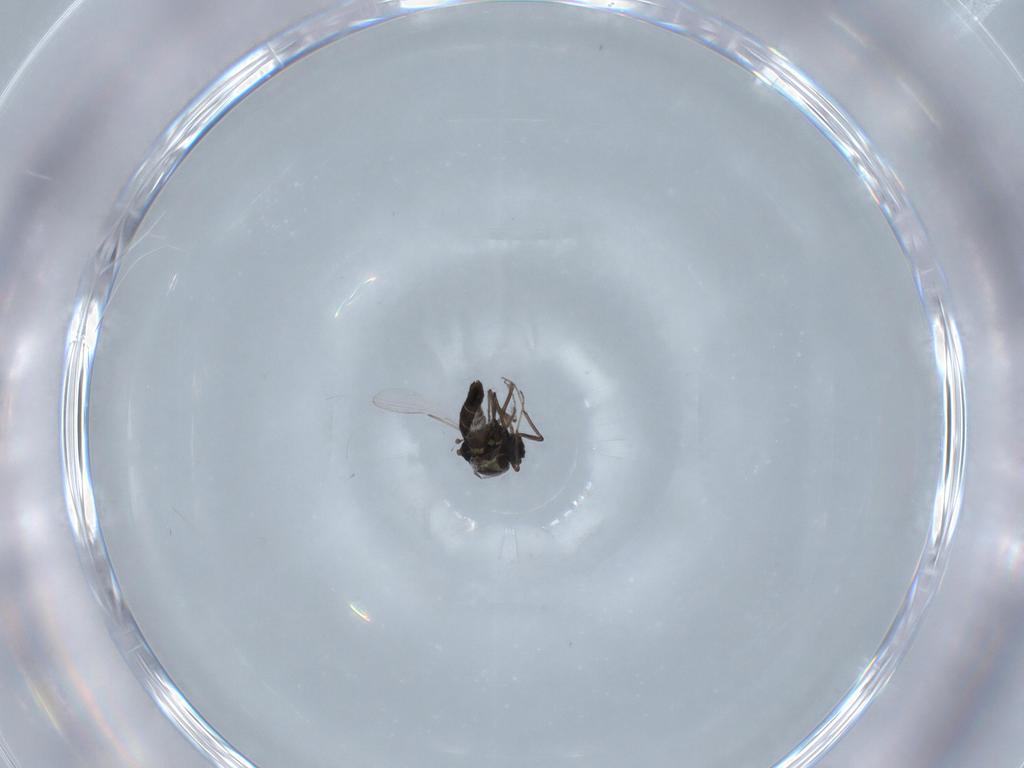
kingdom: Animalia
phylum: Arthropoda
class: Insecta
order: Diptera
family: Ceratopogonidae
